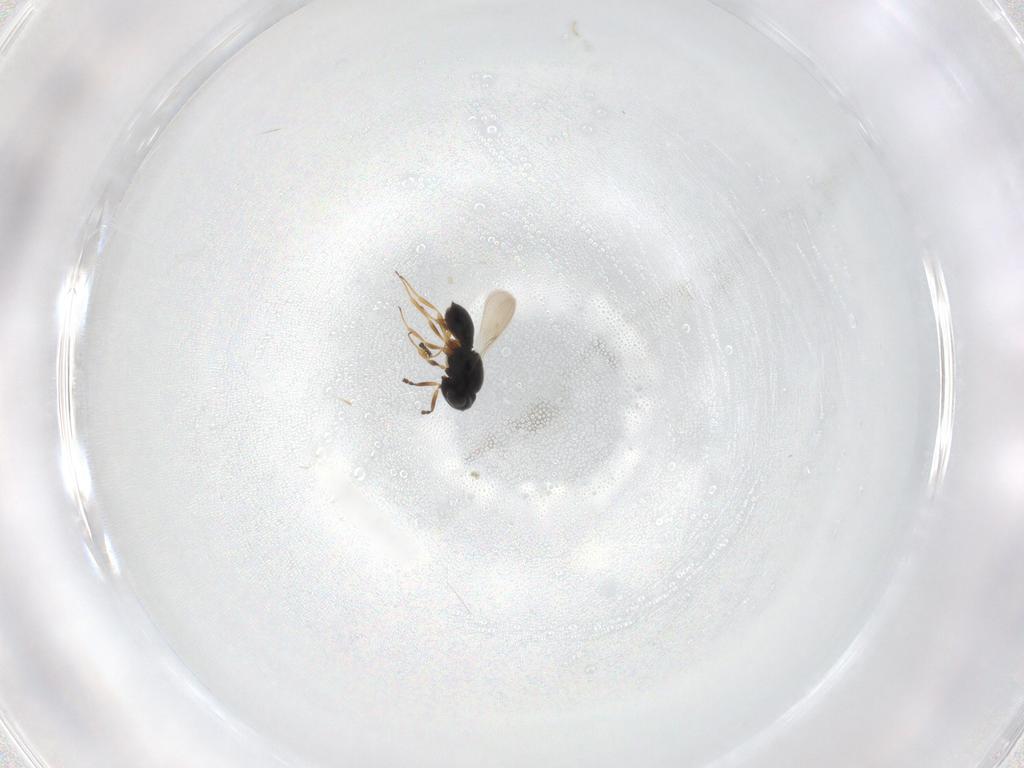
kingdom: Animalia
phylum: Arthropoda
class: Insecta
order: Hymenoptera
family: Scelionidae
